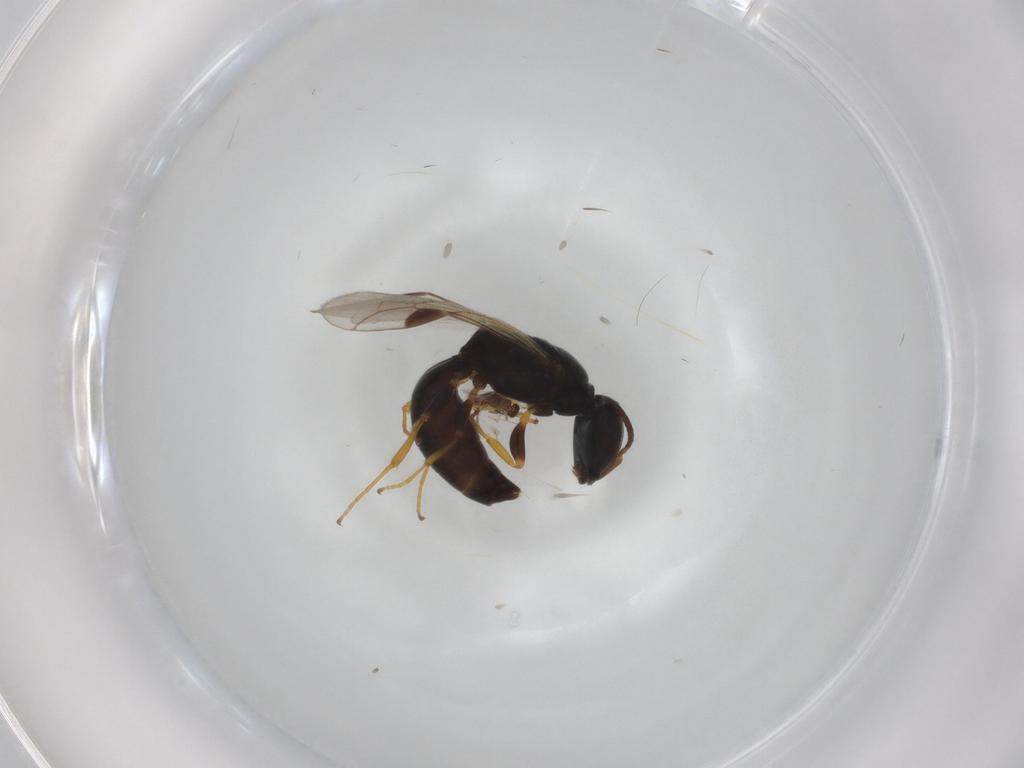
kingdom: Animalia
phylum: Arthropoda
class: Insecta
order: Hymenoptera
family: Crabronidae
